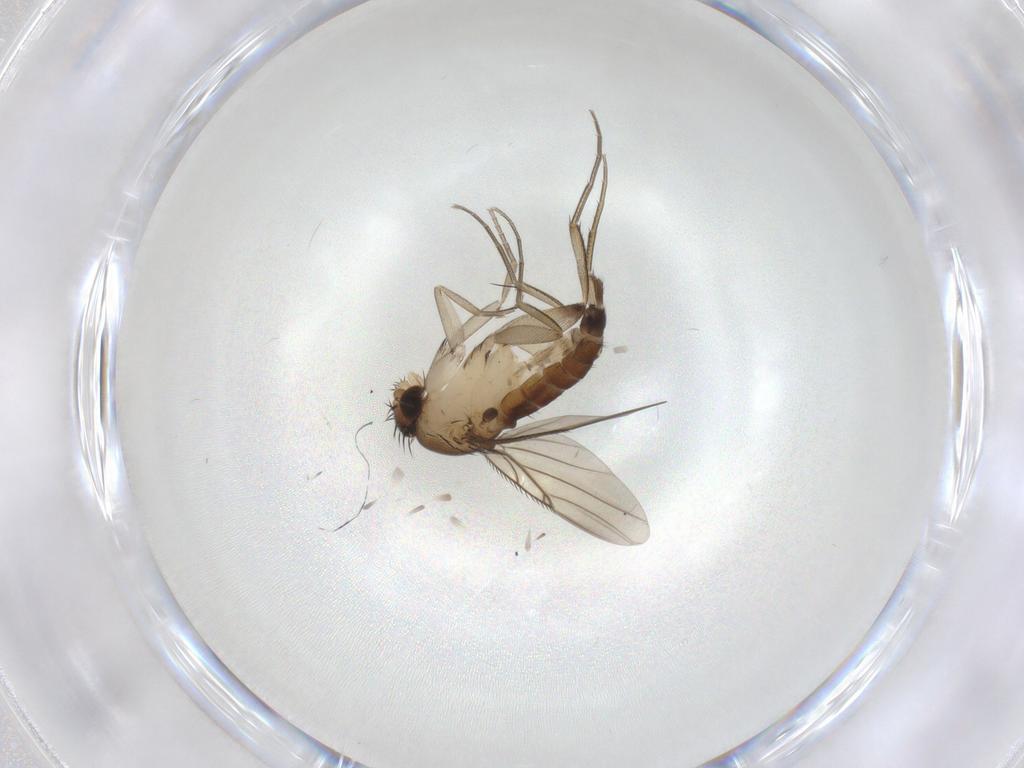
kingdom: Animalia
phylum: Arthropoda
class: Insecta
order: Diptera
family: Phoridae
